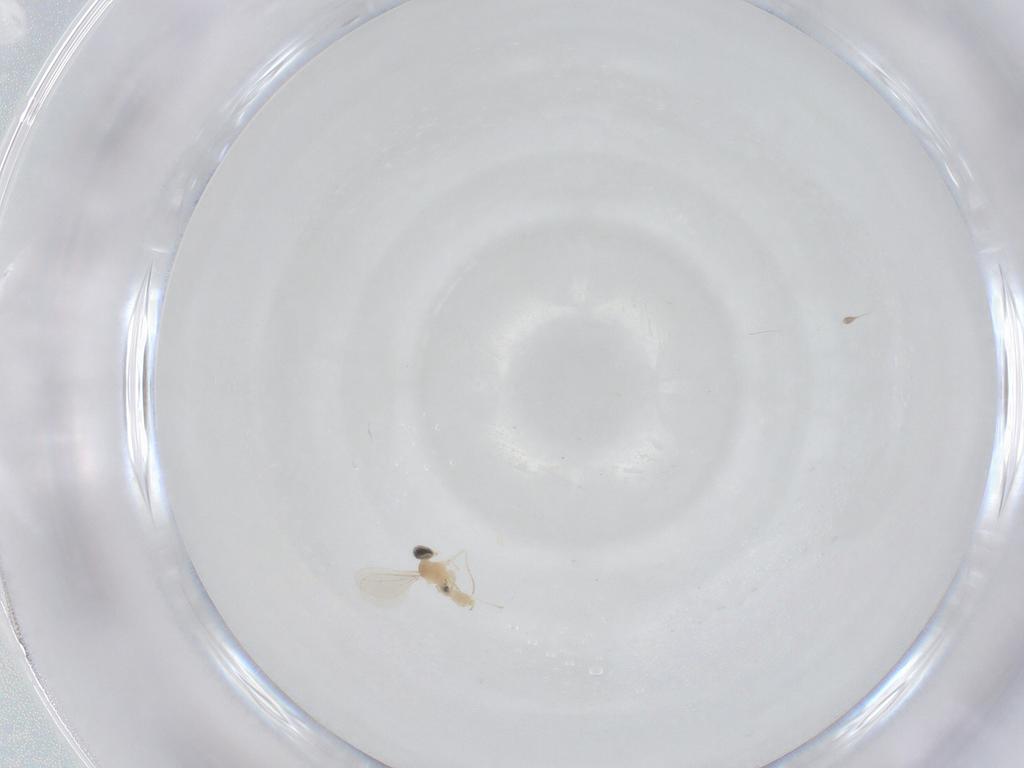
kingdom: Animalia
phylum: Arthropoda
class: Insecta
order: Diptera
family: Cecidomyiidae
